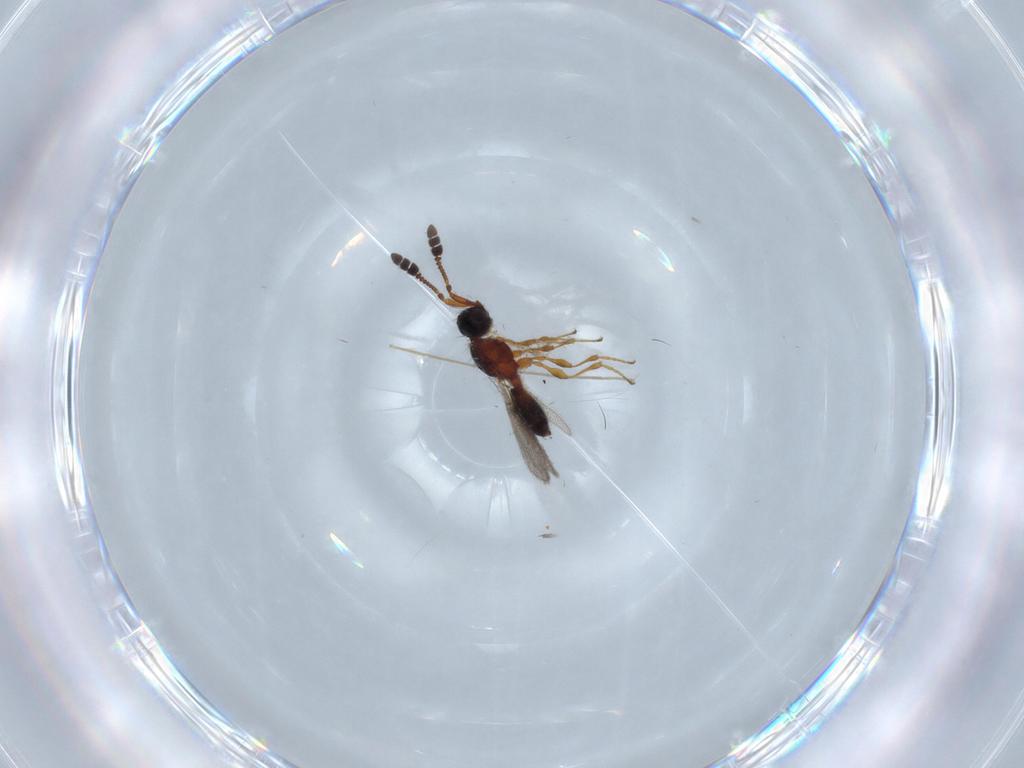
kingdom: Animalia
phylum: Arthropoda
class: Insecta
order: Hymenoptera
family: Diapriidae
